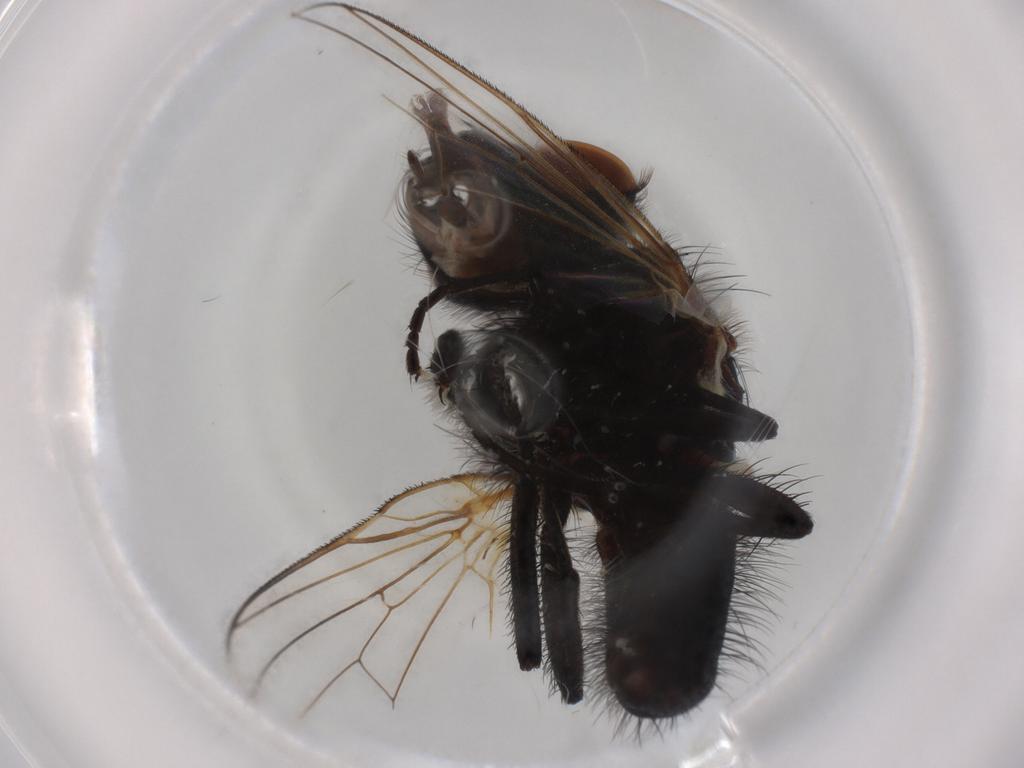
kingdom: Animalia
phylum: Arthropoda
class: Insecta
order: Diptera
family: Anthomyiidae
